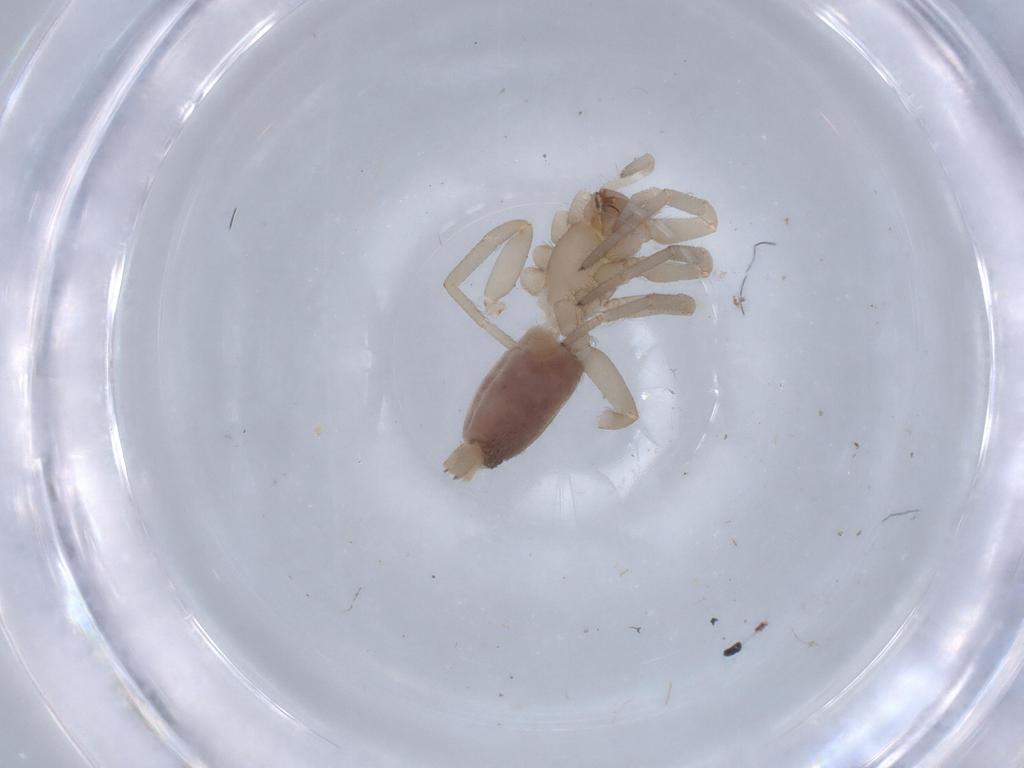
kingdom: Animalia
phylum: Arthropoda
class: Arachnida
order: Araneae
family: Gnaphosidae
